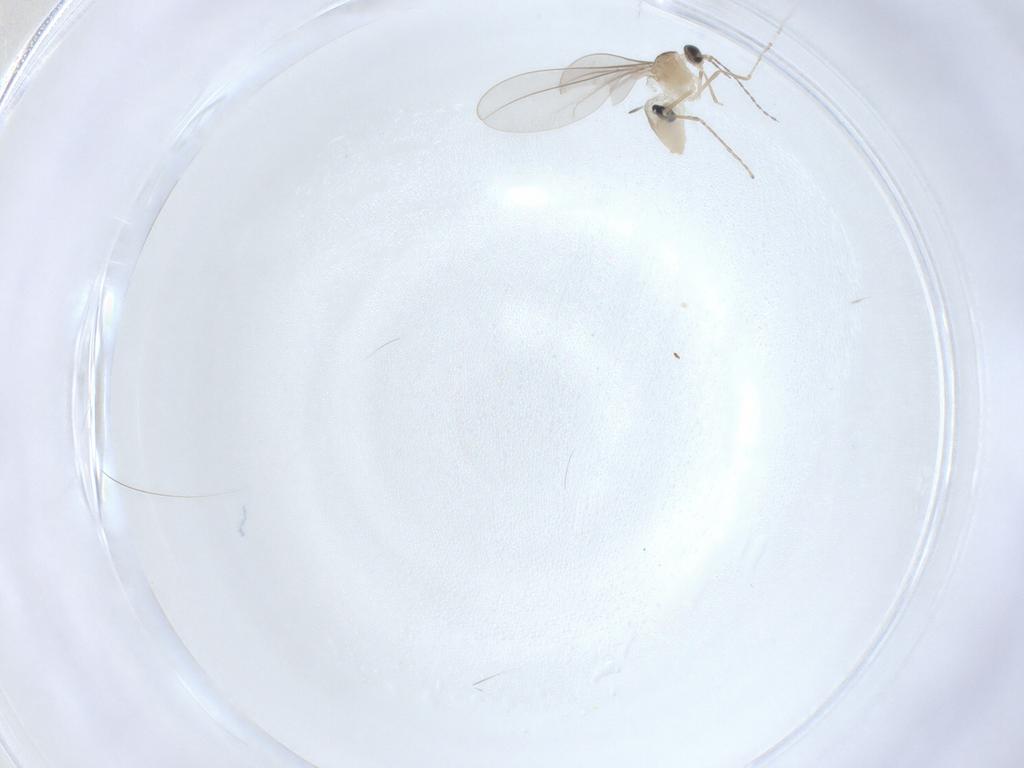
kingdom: Animalia
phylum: Arthropoda
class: Insecta
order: Diptera
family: Cecidomyiidae
